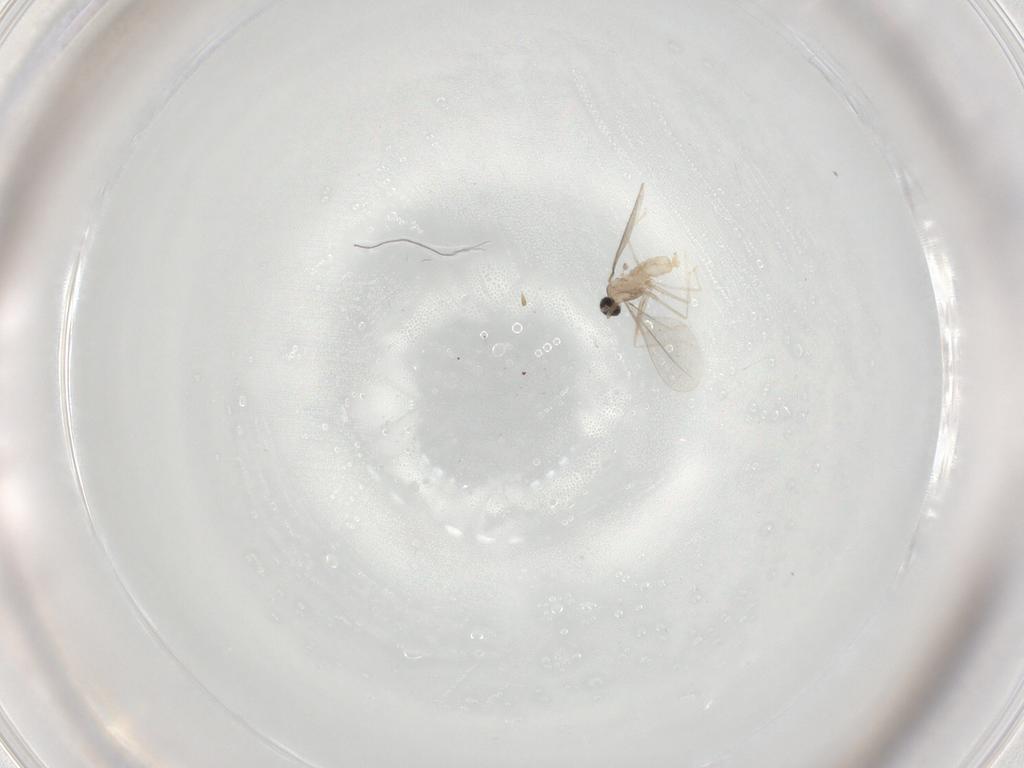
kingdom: Animalia
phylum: Arthropoda
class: Insecta
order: Diptera
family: Cecidomyiidae
